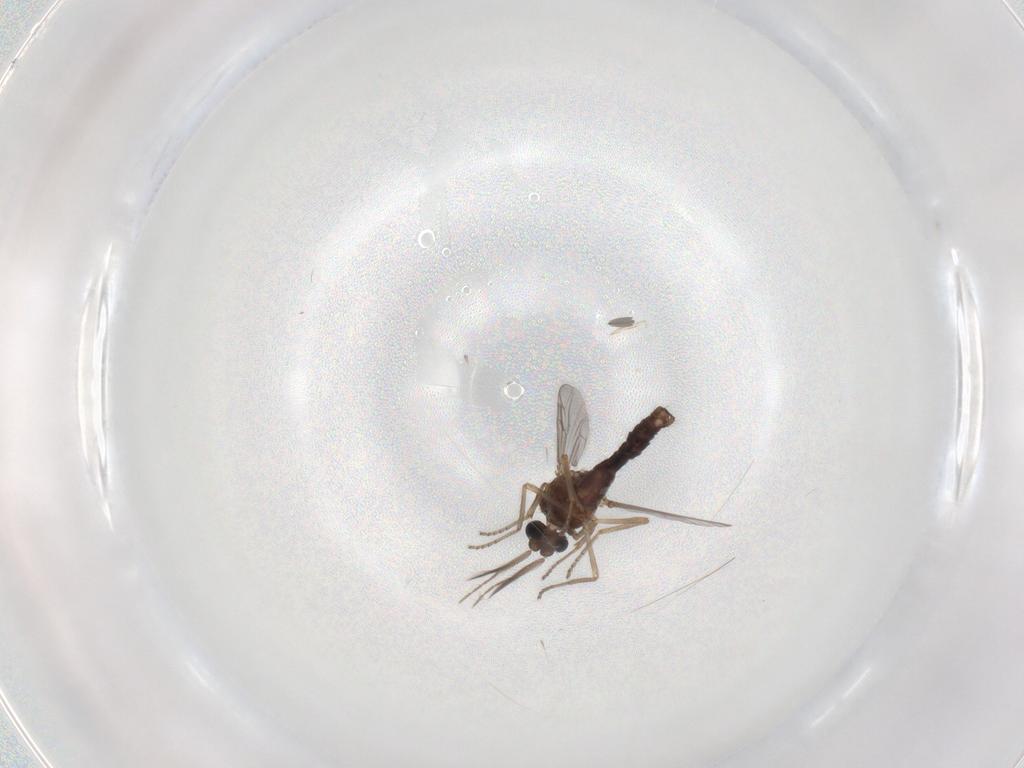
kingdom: Animalia
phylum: Arthropoda
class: Insecta
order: Diptera
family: Ceratopogonidae
